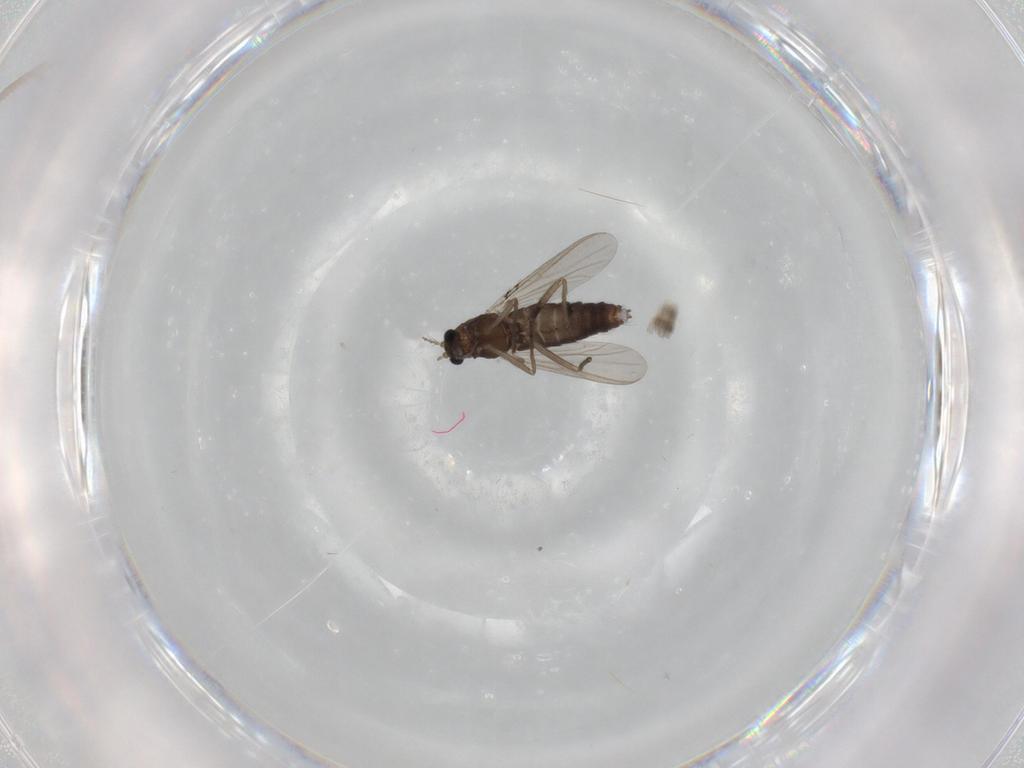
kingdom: Animalia
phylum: Arthropoda
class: Insecta
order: Diptera
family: Chironomidae
